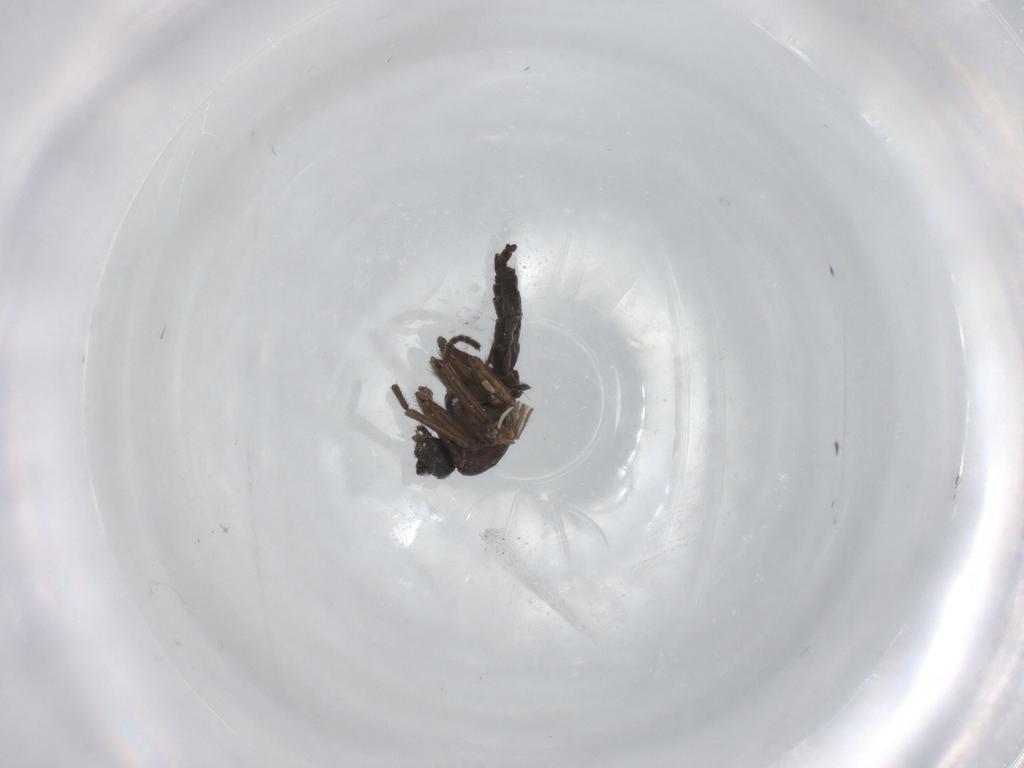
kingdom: Animalia
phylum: Arthropoda
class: Insecta
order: Diptera
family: Sciaridae
